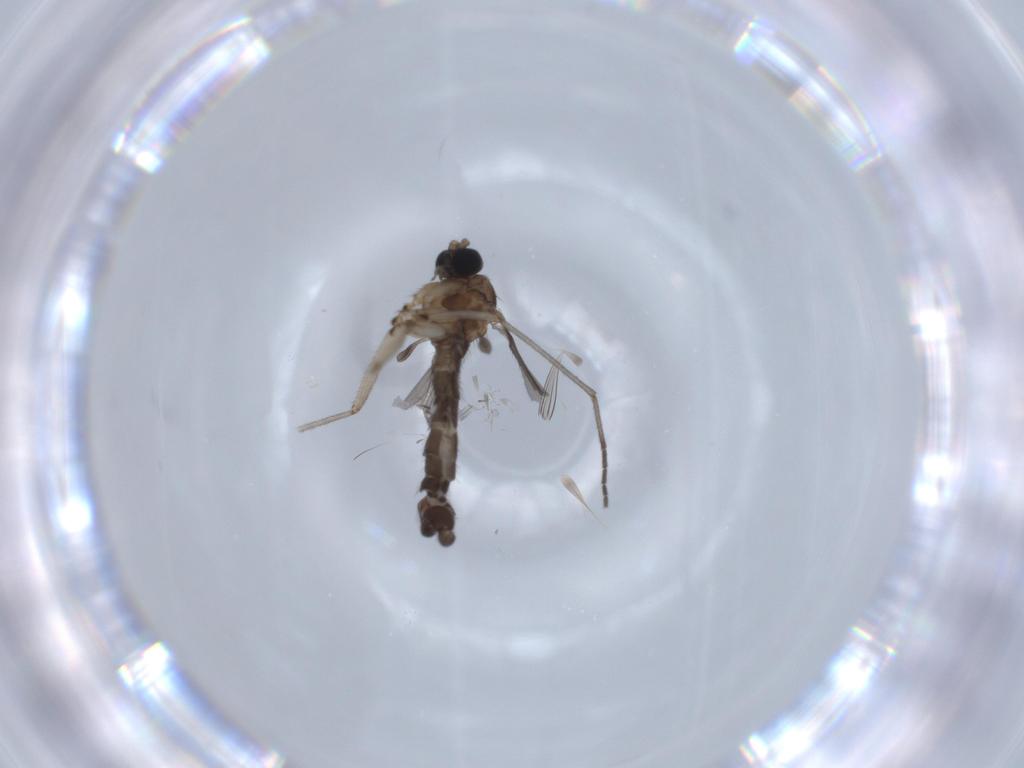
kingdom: Animalia
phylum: Arthropoda
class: Insecta
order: Diptera
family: Sciaridae
